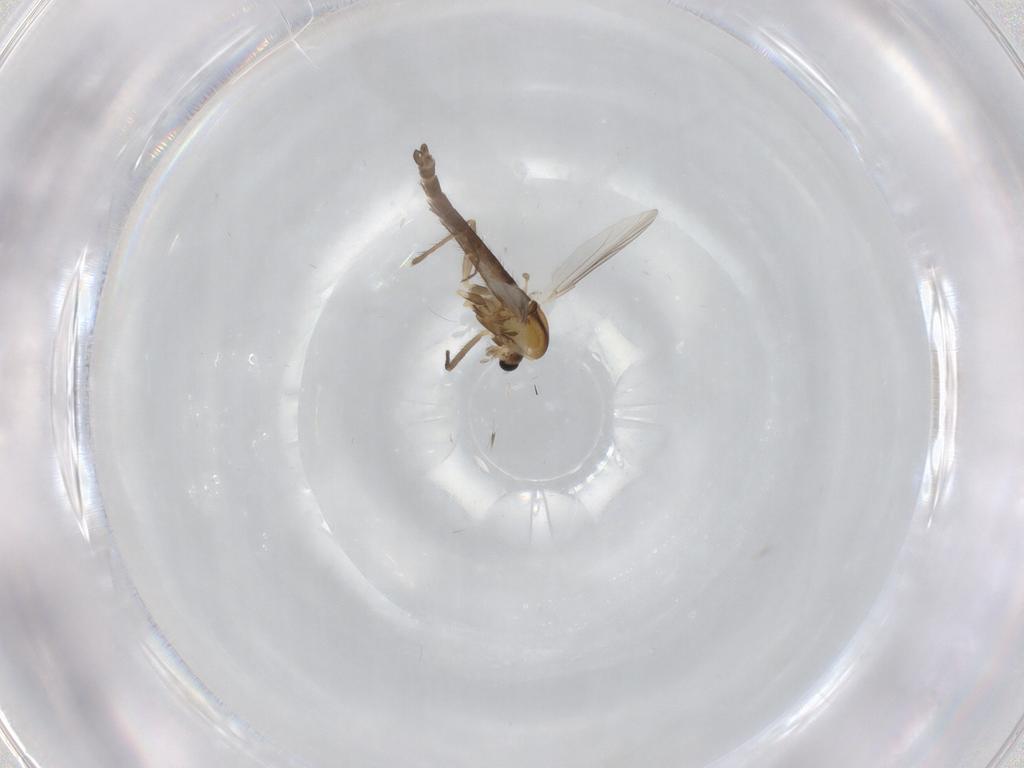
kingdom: Animalia
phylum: Arthropoda
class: Insecta
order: Diptera
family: Chironomidae
